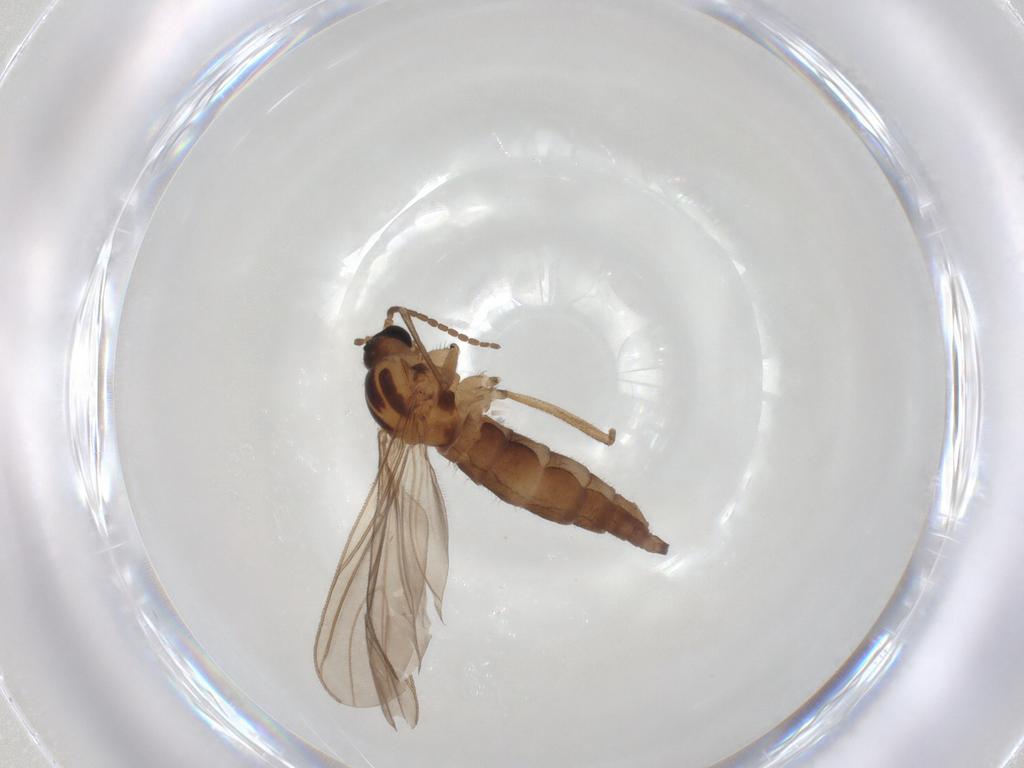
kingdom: Animalia
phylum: Arthropoda
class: Insecta
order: Diptera
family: Sciaridae
